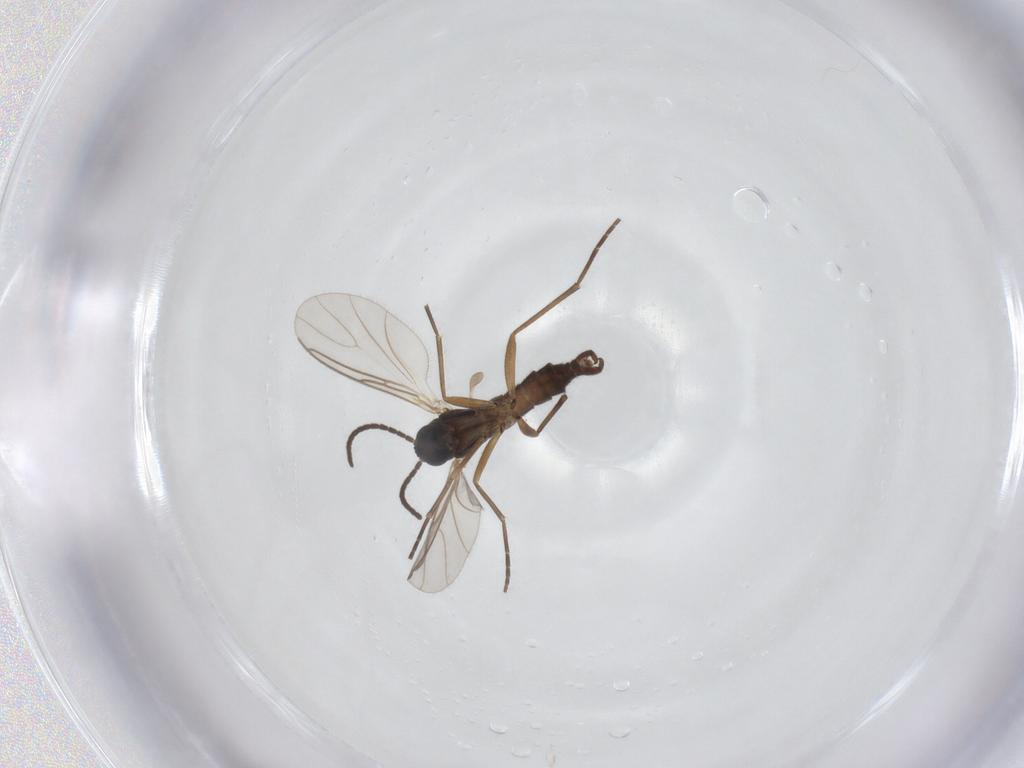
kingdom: Animalia
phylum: Arthropoda
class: Insecta
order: Diptera
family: Sciaridae
